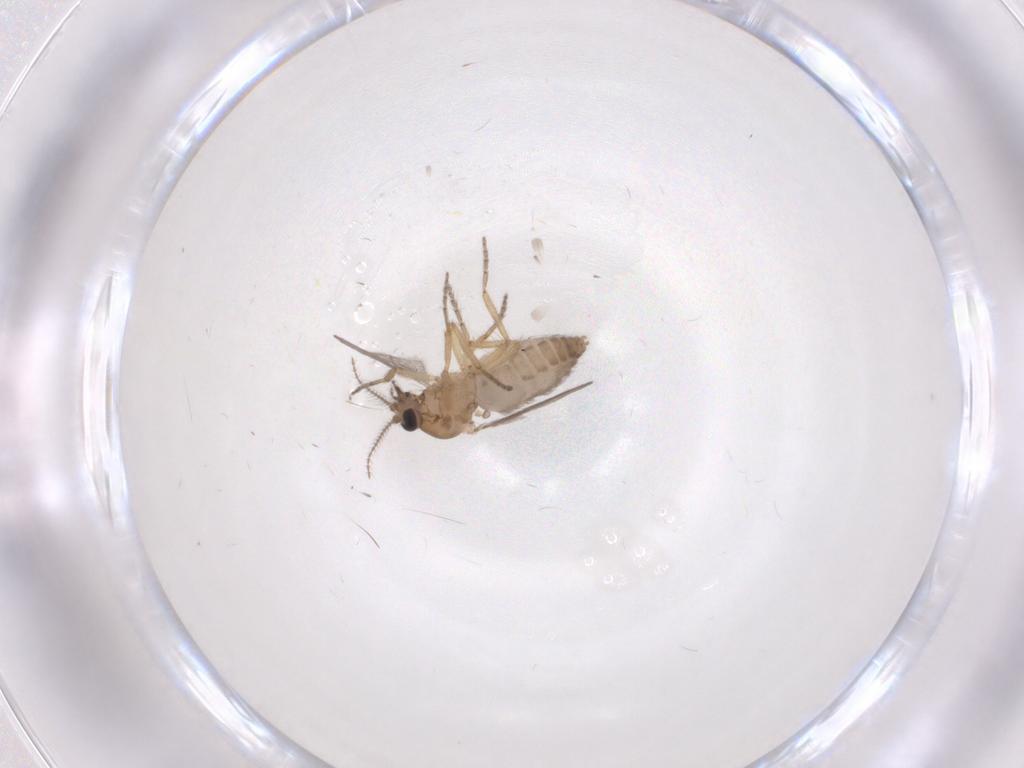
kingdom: Animalia
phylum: Arthropoda
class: Insecta
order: Diptera
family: Ceratopogonidae
